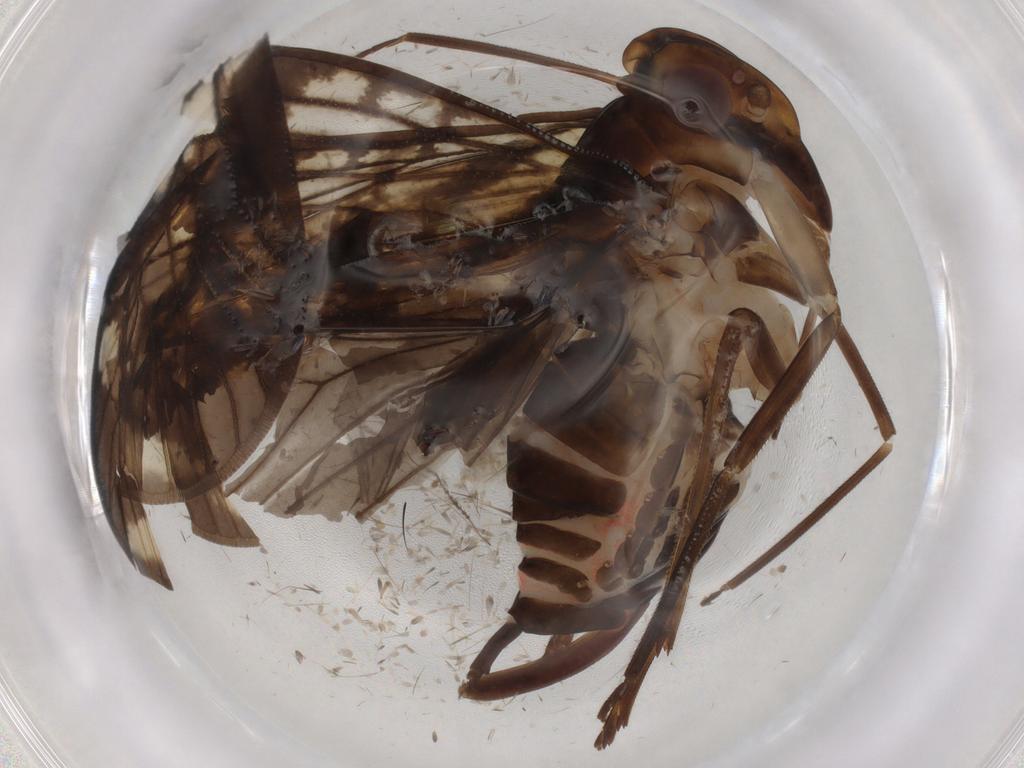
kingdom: Animalia
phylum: Arthropoda
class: Insecta
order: Hemiptera
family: Cixiidae
